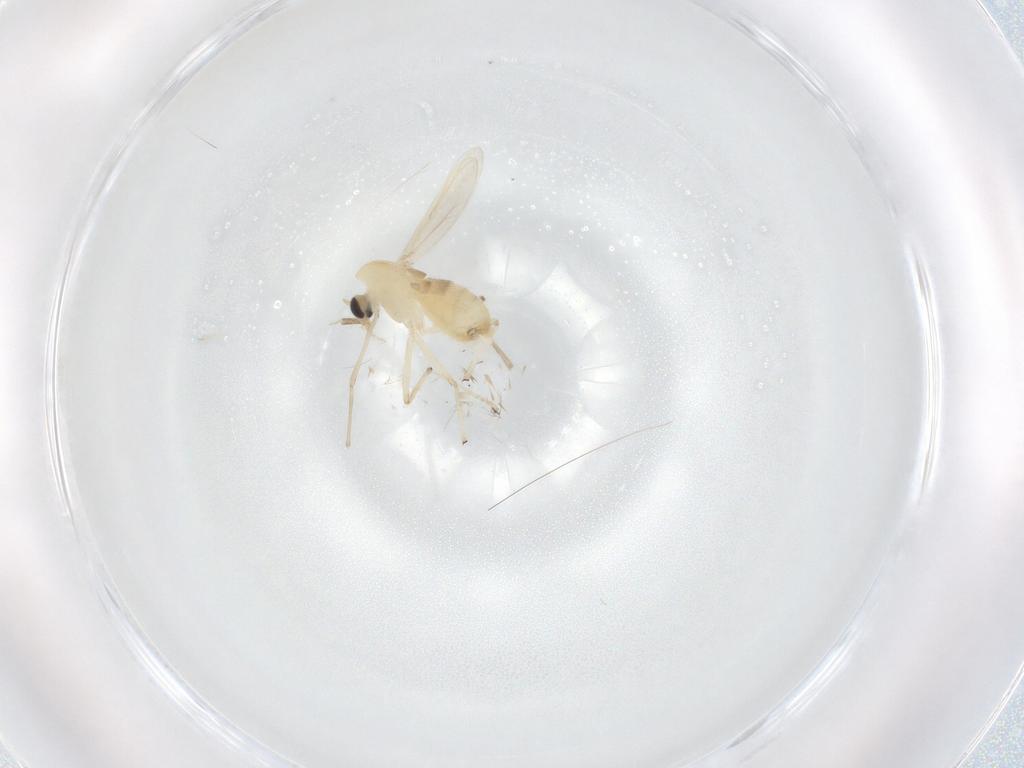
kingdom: Animalia
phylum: Arthropoda
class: Insecta
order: Diptera
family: Chironomidae
